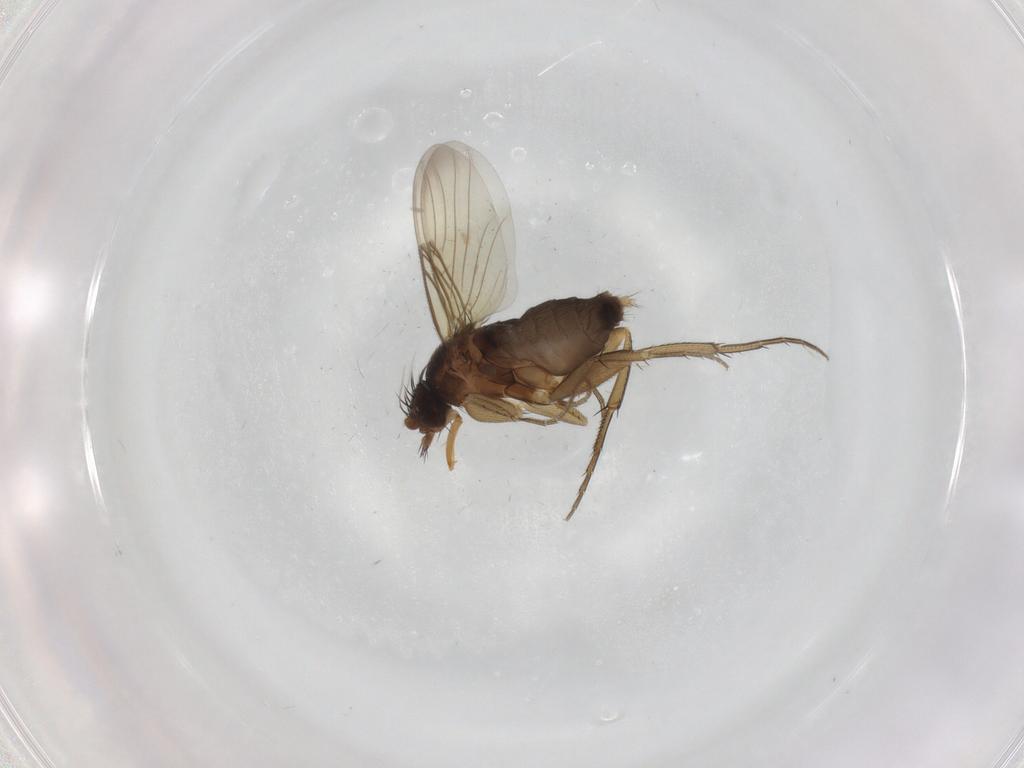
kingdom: Animalia
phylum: Arthropoda
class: Insecta
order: Diptera
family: Phoridae
